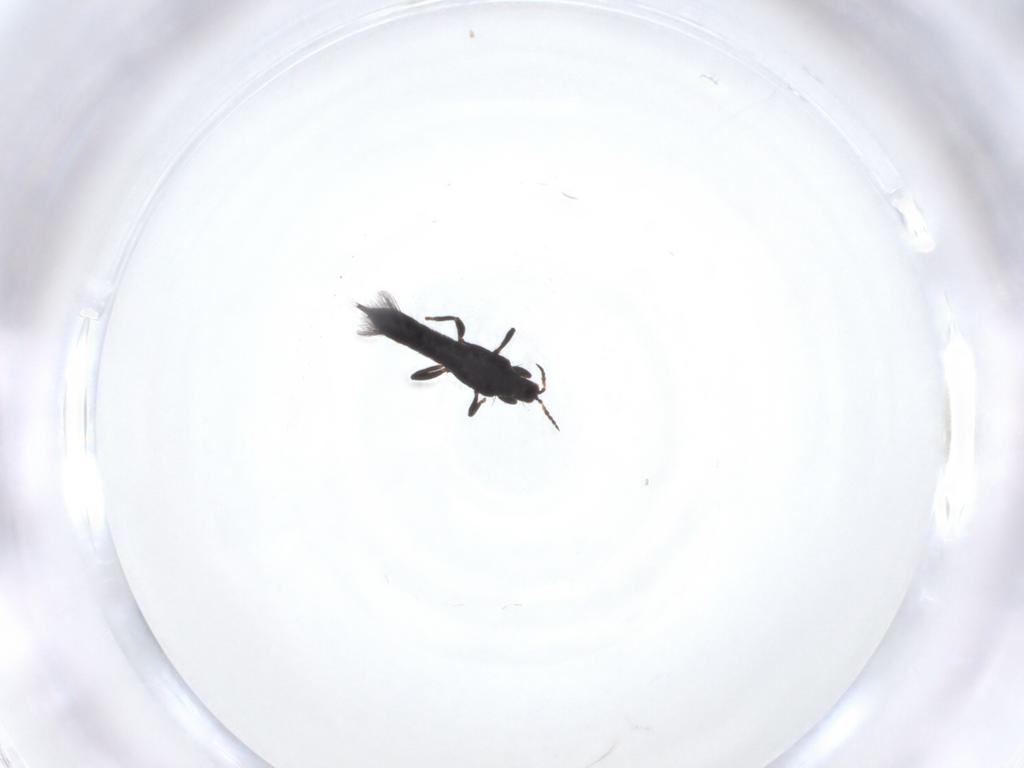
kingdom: Animalia
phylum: Arthropoda
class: Insecta
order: Thysanoptera
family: Phlaeothripidae
